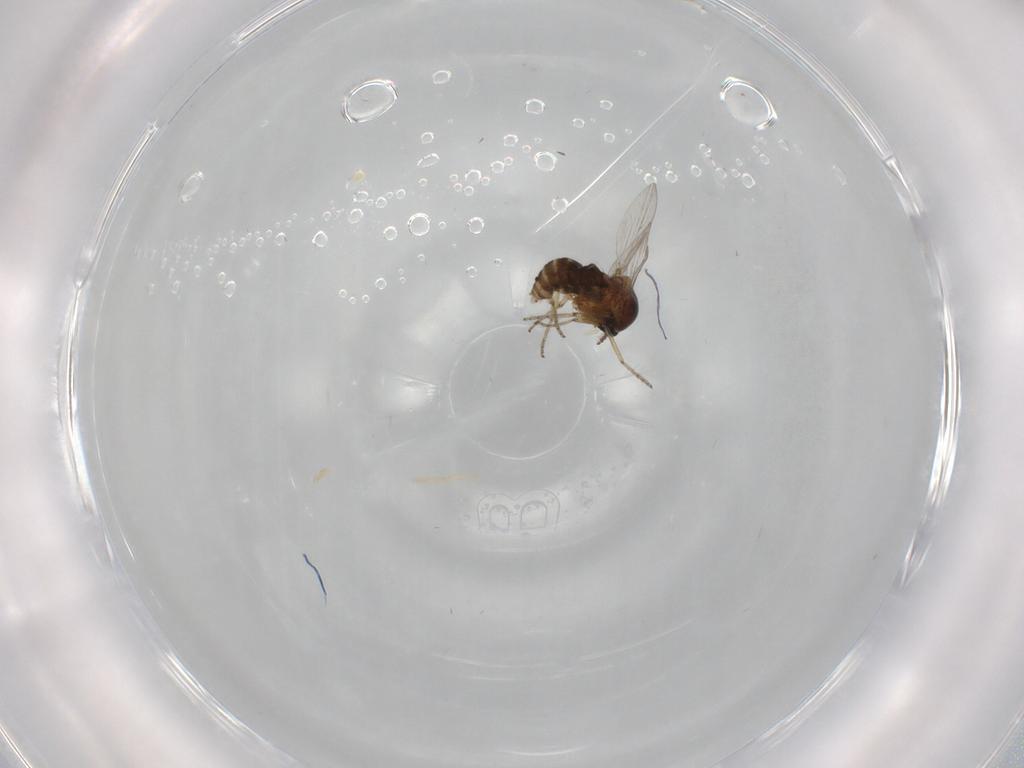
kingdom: Animalia
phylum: Arthropoda
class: Insecta
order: Diptera
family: Ceratopogonidae
